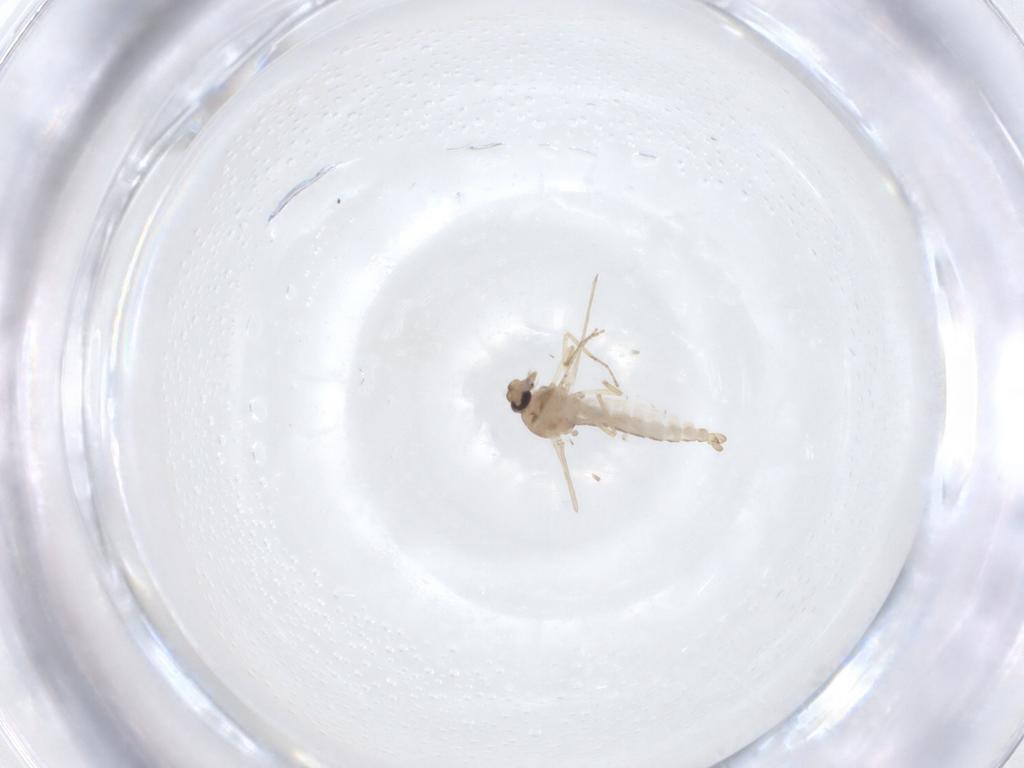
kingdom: Animalia
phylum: Arthropoda
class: Insecta
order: Diptera
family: Ceratopogonidae
